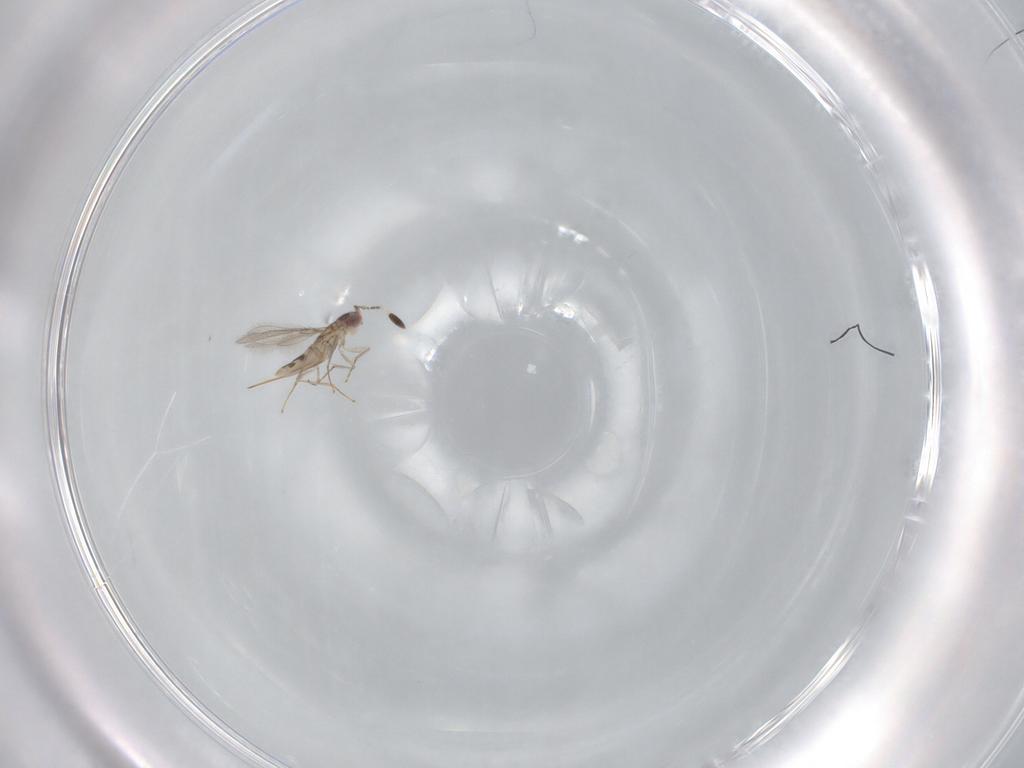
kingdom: Animalia
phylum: Arthropoda
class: Insecta
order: Hymenoptera
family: Mymaridae
